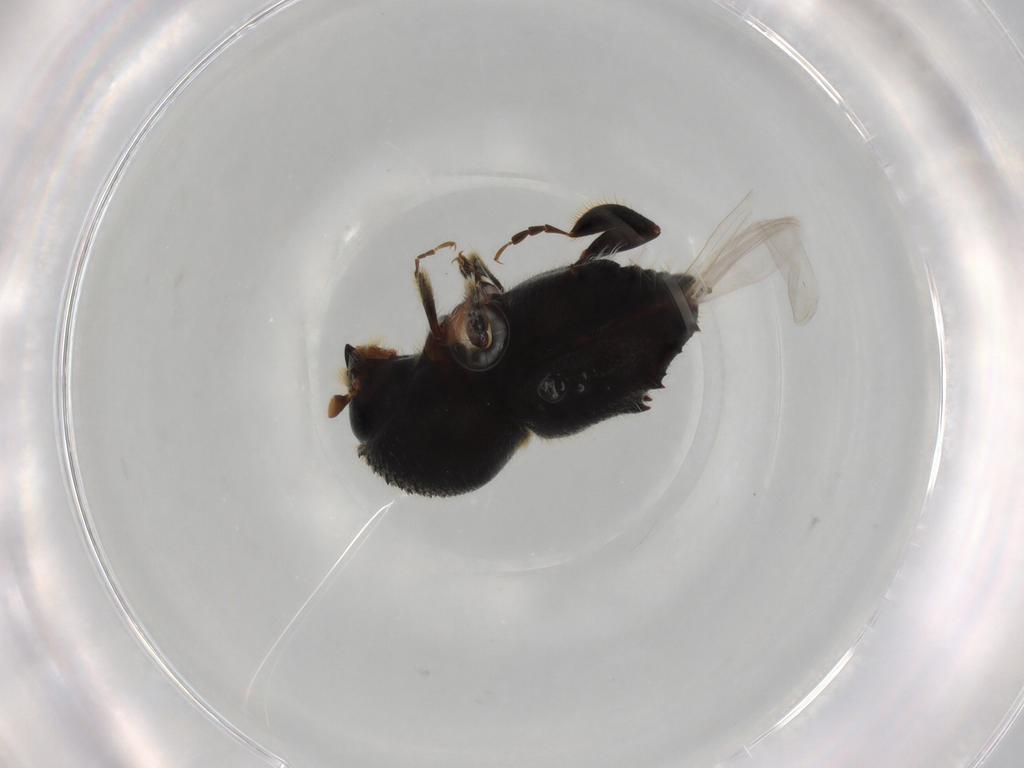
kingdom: Animalia
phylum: Arthropoda
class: Insecta
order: Coleoptera
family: Curculionidae
